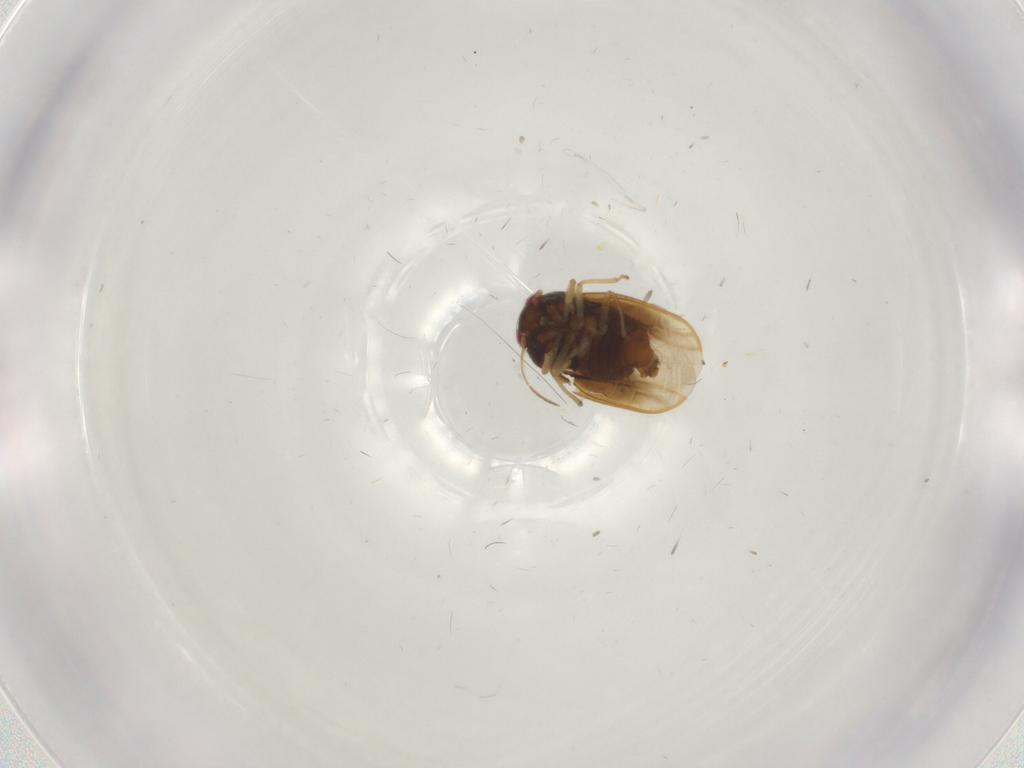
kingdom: Animalia
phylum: Arthropoda
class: Insecta
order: Hemiptera
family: Schizopteridae
